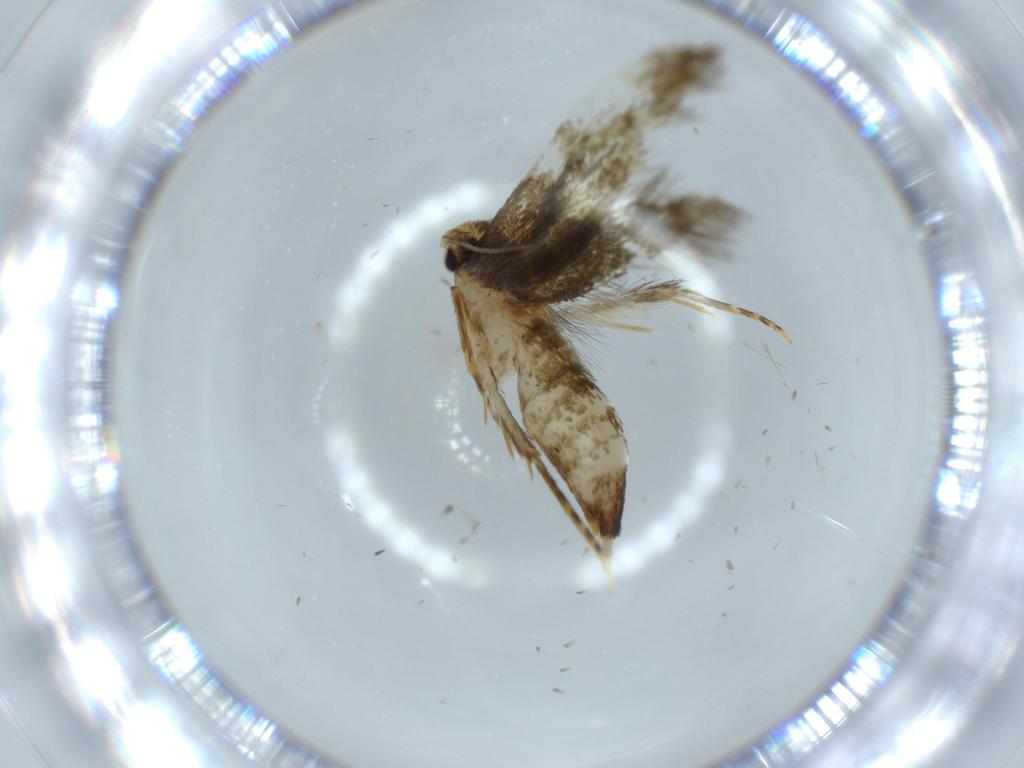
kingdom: Animalia
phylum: Arthropoda
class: Insecta
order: Lepidoptera
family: Tineidae
